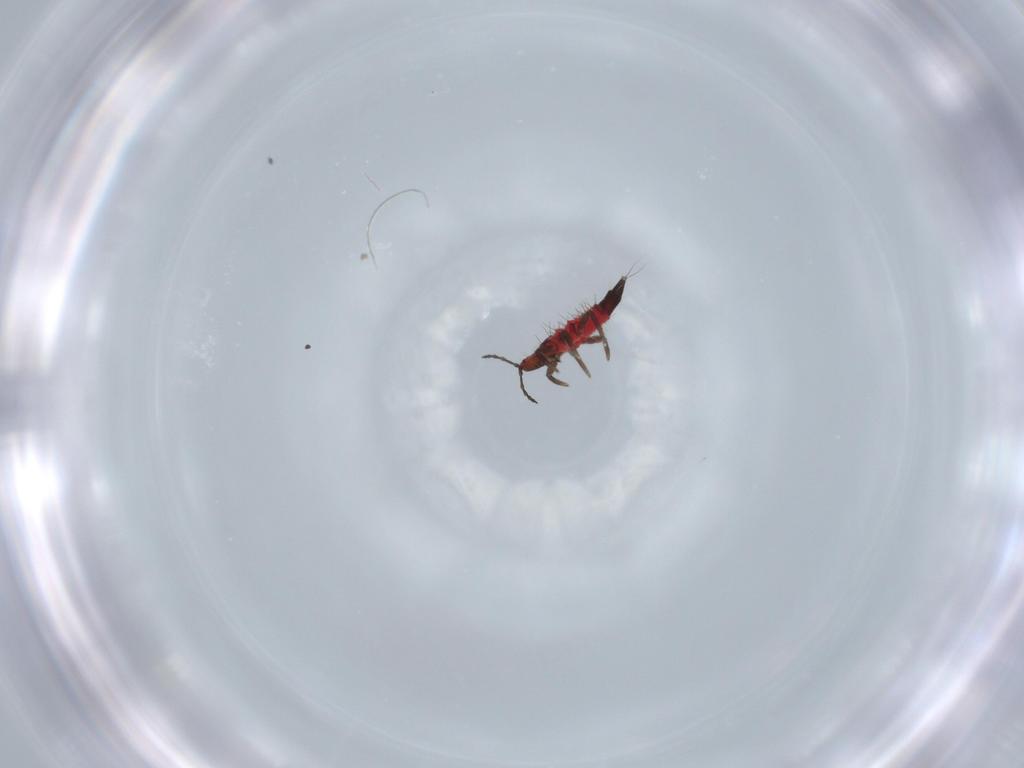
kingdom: Animalia
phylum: Arthropoda
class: Insecta
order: Thysanoptera
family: Phlaeothripidae
